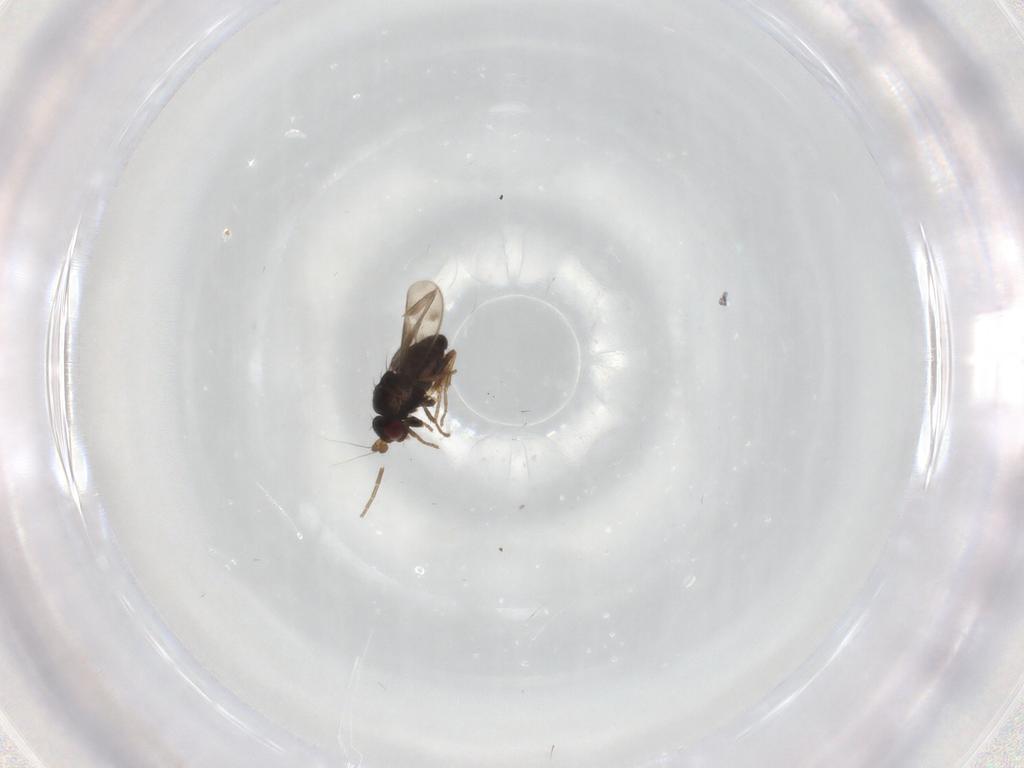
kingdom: Animalia
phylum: Arthropoda
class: Insecta
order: Diptera
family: Sphaeroceridae
